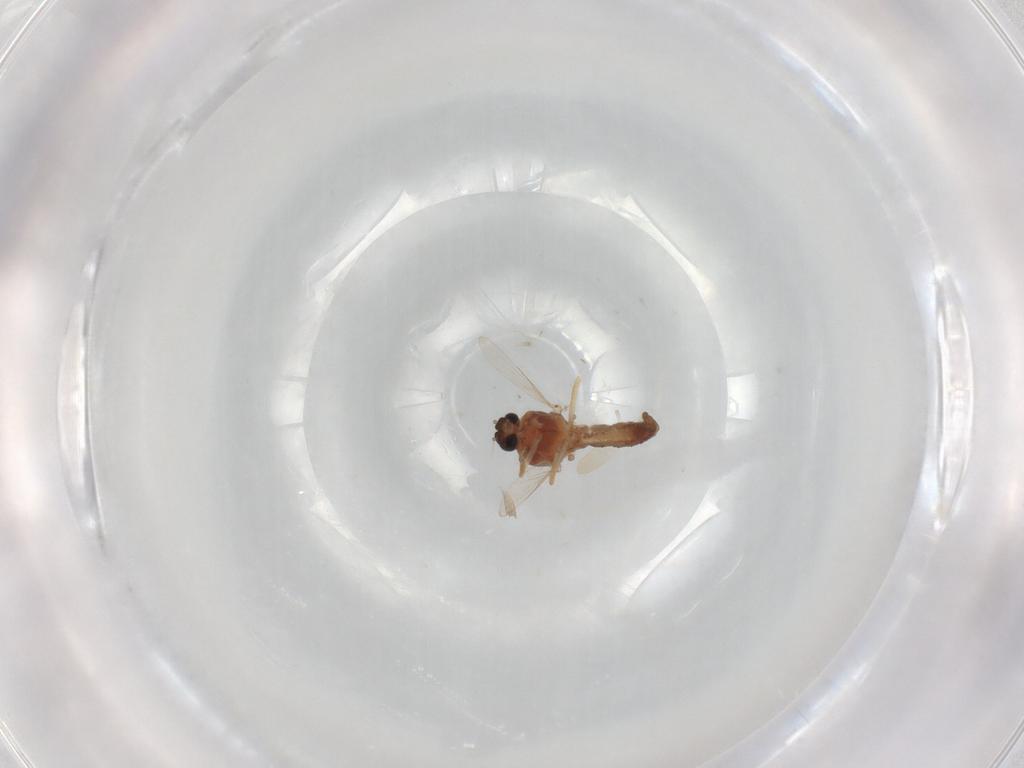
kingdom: Animalia
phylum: Arthropoda
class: Insecta
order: Diptera
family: Ceratopogonidae
